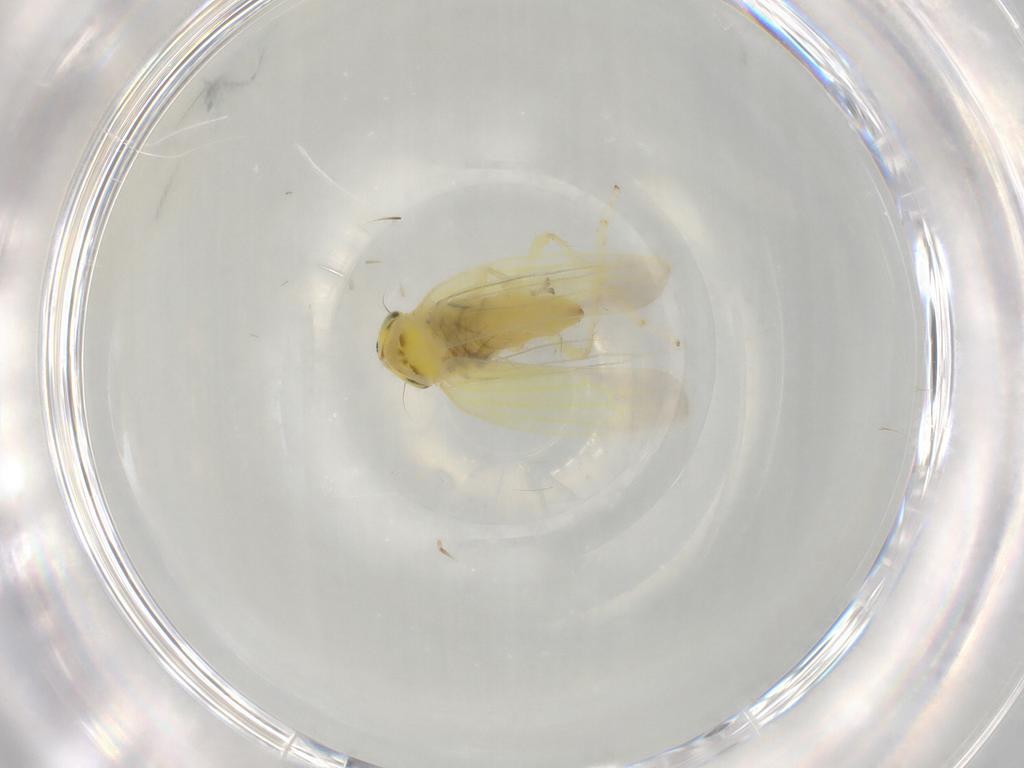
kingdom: Animalia
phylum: Arthropoda
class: Insecta
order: Hemiptera
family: Cicadellidae
